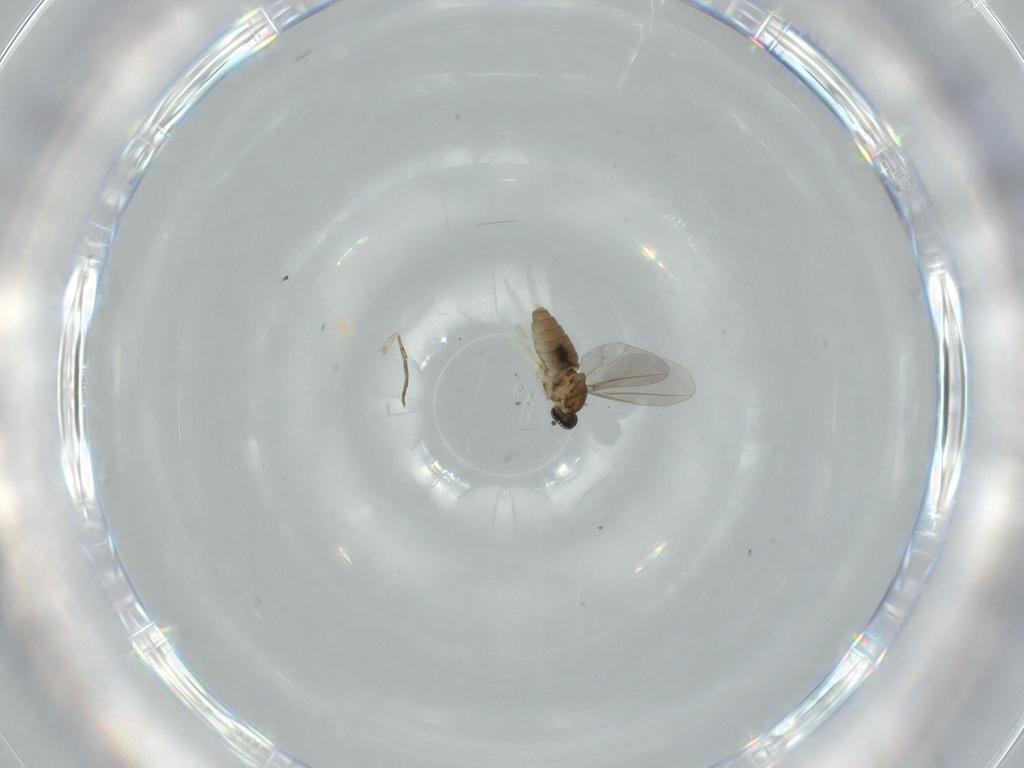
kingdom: Animalia
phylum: Arthropoda
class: Insecta
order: Diptera
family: Cecidomyiidae
